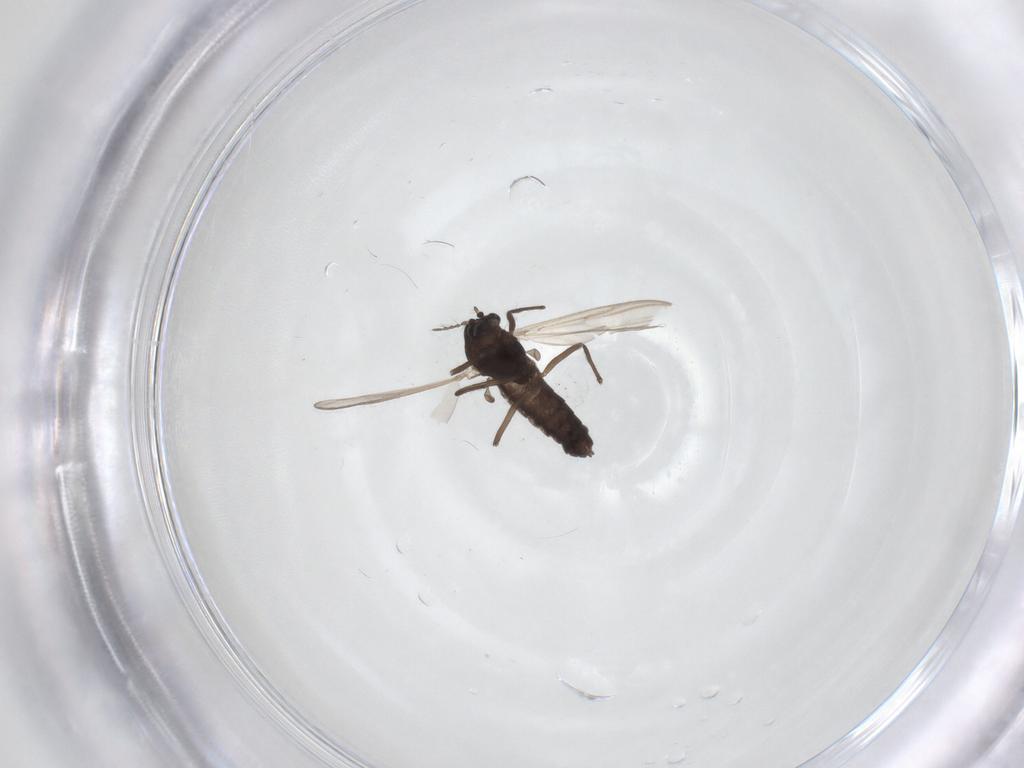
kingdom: Animalia
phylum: Arthropoda
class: Insecta
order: Diptera
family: Chironomidae
